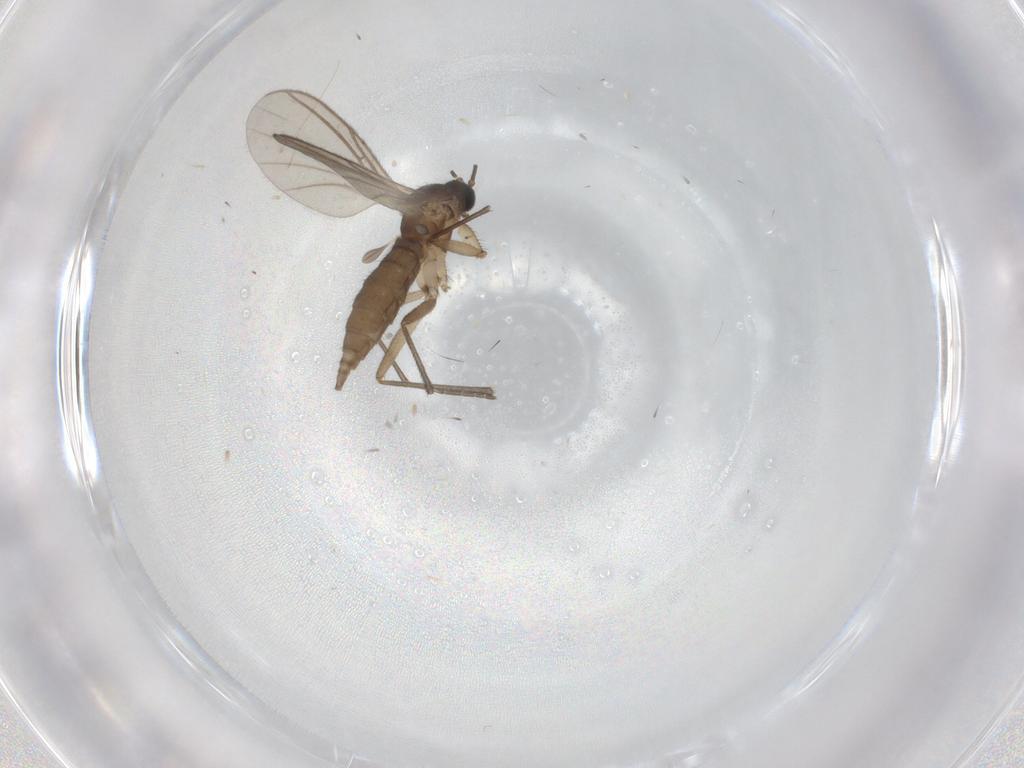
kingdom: Animalia
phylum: Arthropoda
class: Insecta
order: Diptera
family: Sciaridae
